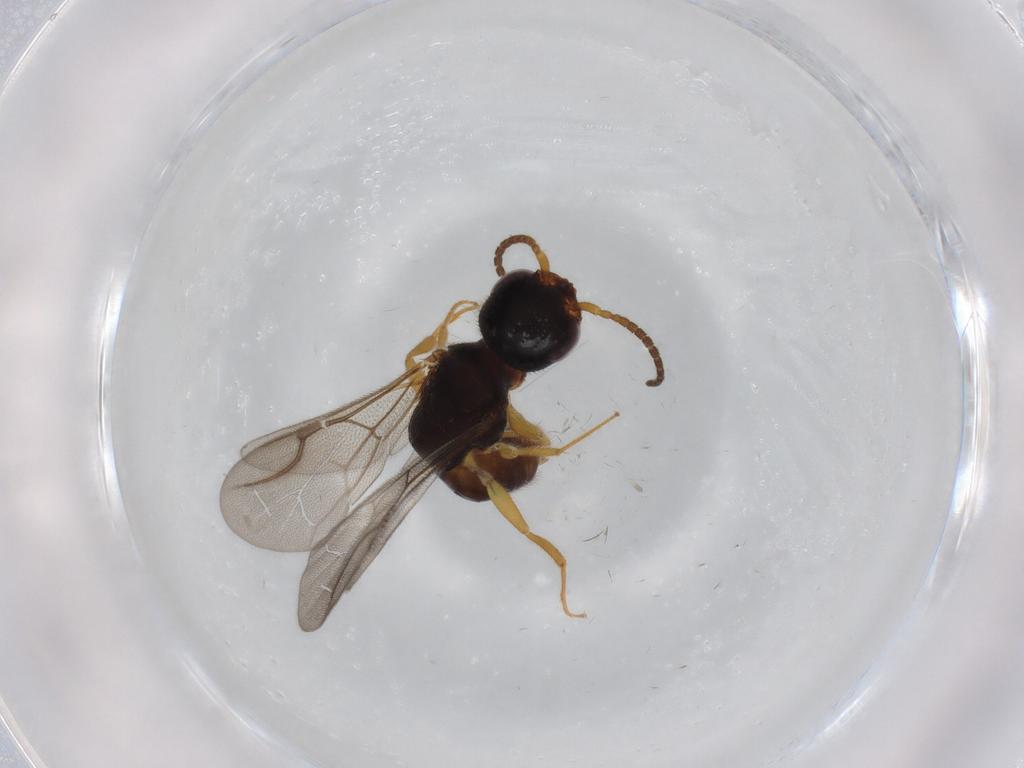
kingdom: Animalia
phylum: Arthropoda
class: Insecta
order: Hymenoptera
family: Bethylidae
